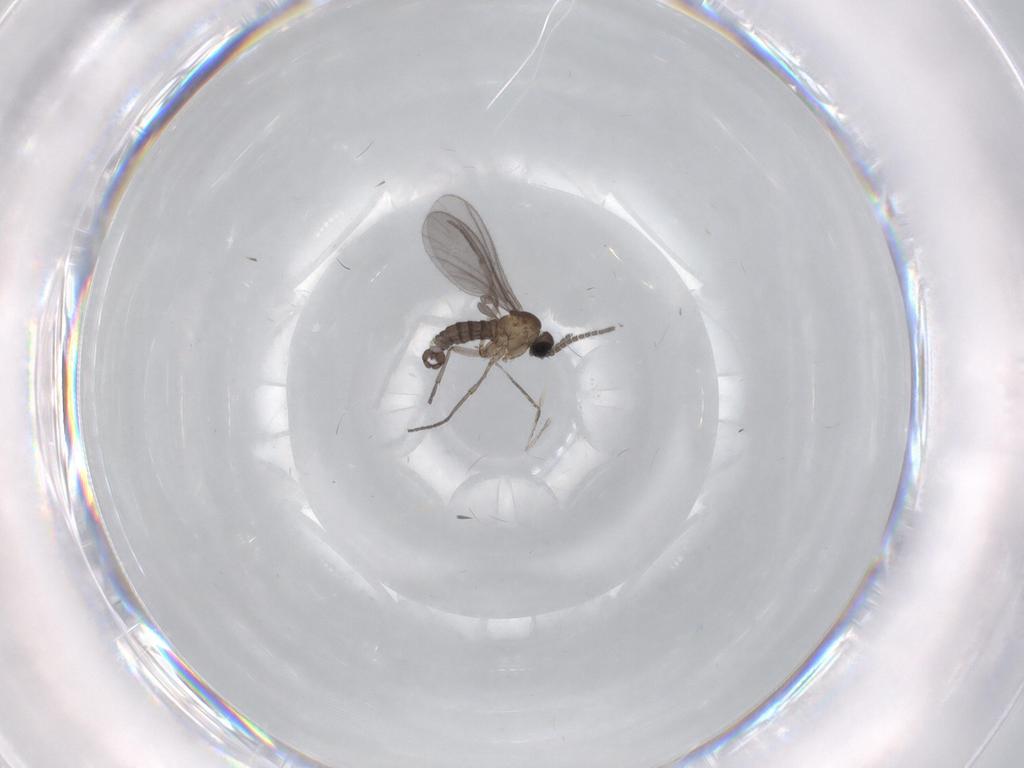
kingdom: Animalia
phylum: Arthropoda
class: Insecta
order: Diptera
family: Sciaridae
